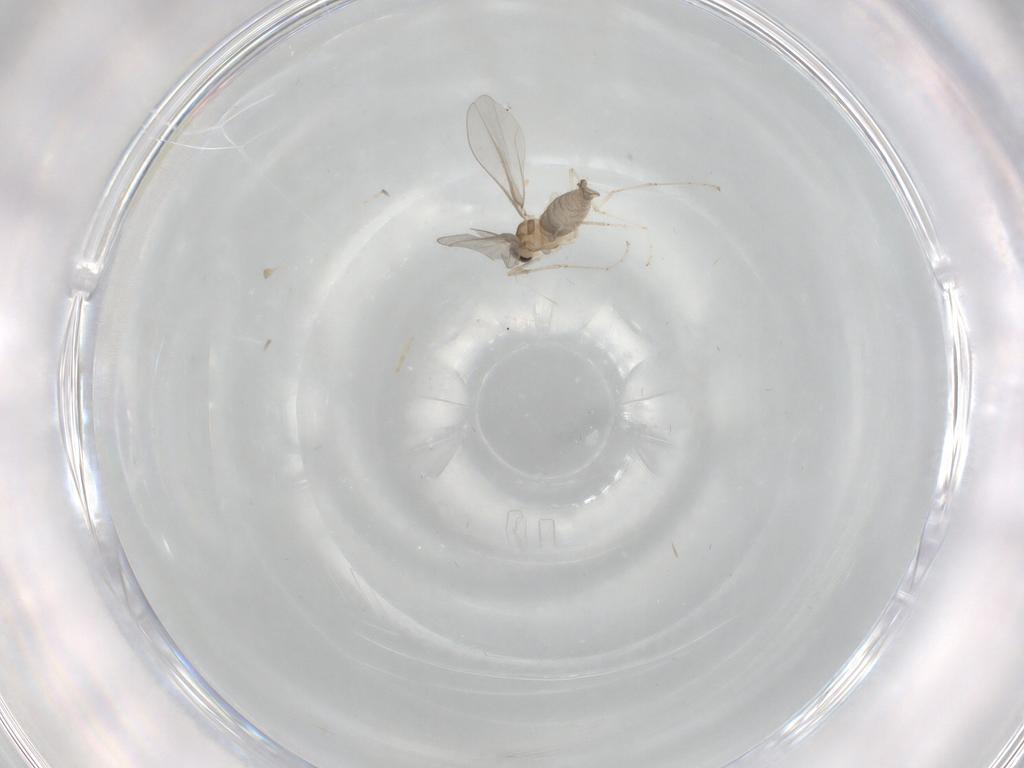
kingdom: Animalia
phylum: Arthropoda
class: Insecta
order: Diptera
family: Cecidomyiidae
